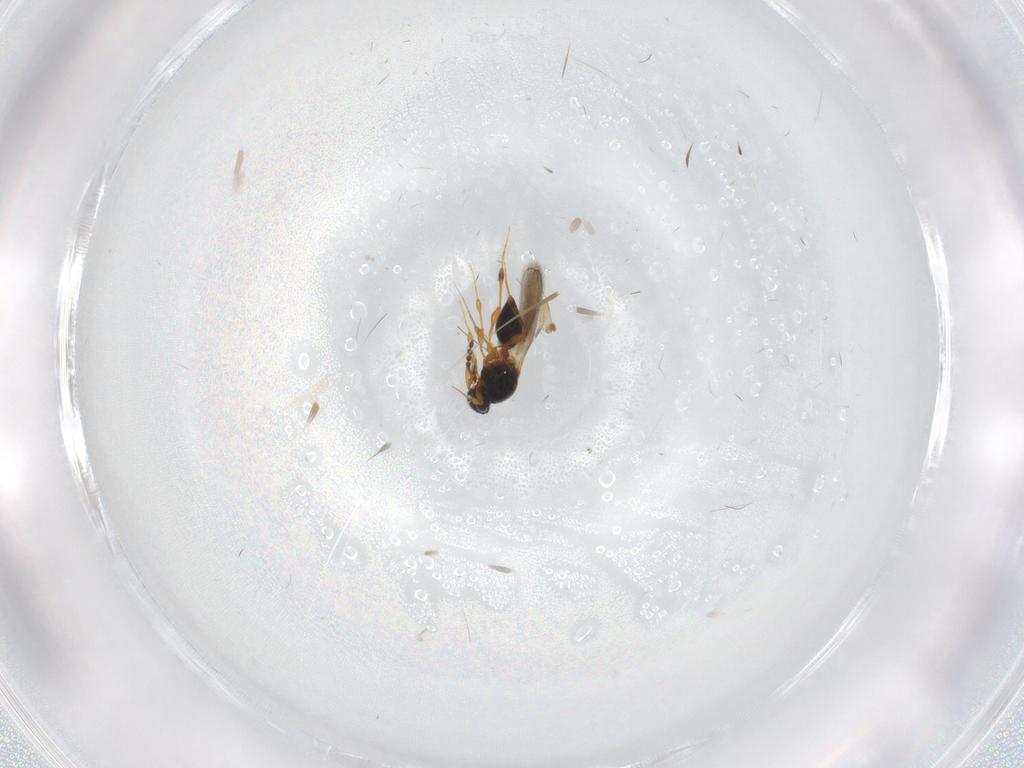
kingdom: Animalia
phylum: Arthropoda
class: Insecta
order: Hymenoptera
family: Platygastridae
